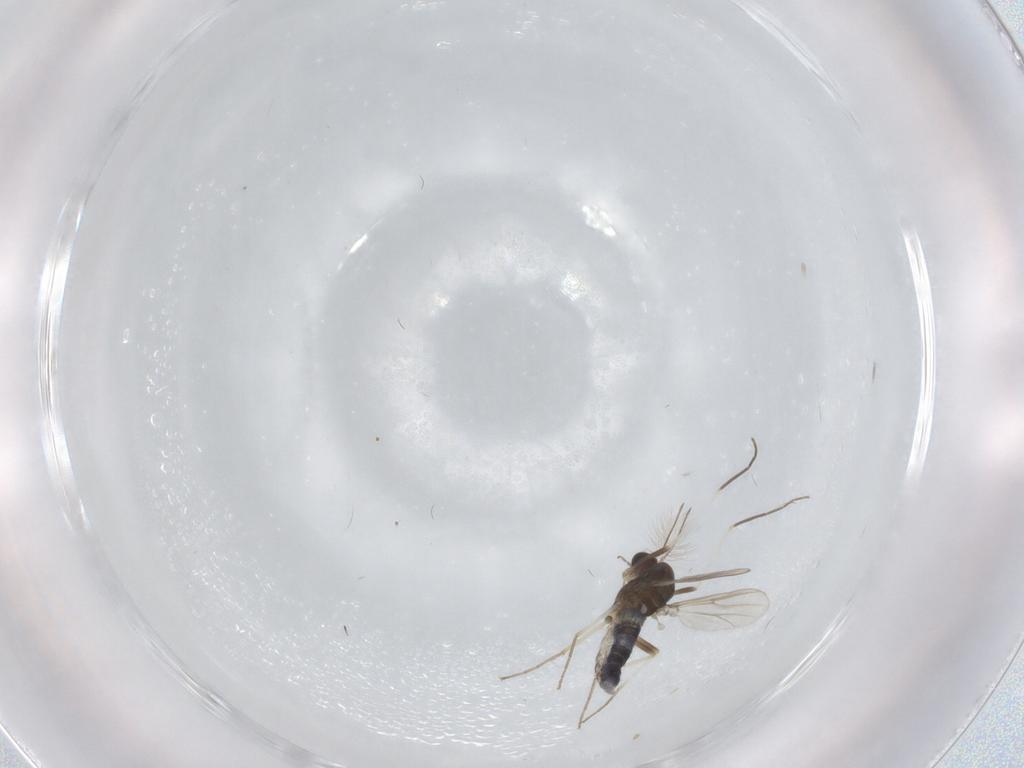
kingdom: Animalia
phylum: Arthropoda
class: Insecta
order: Diptera
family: Chironomidae
